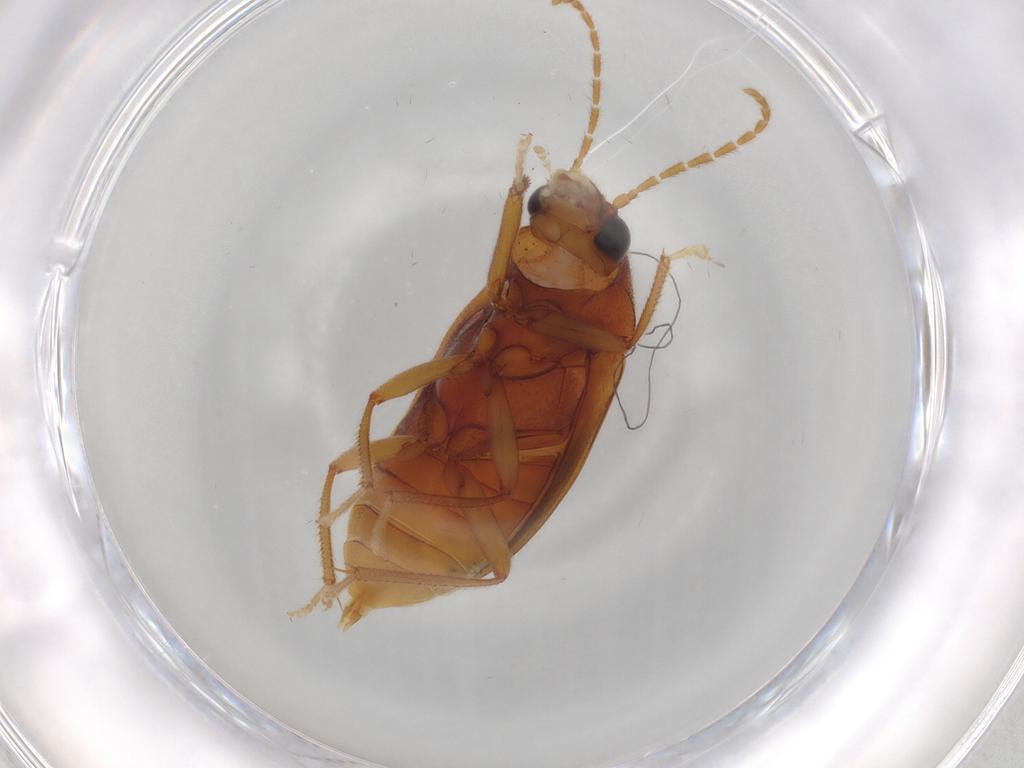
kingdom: Animalia
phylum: Arthropoda
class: Insecta
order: Coleoptera
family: Ptilodactylidae
